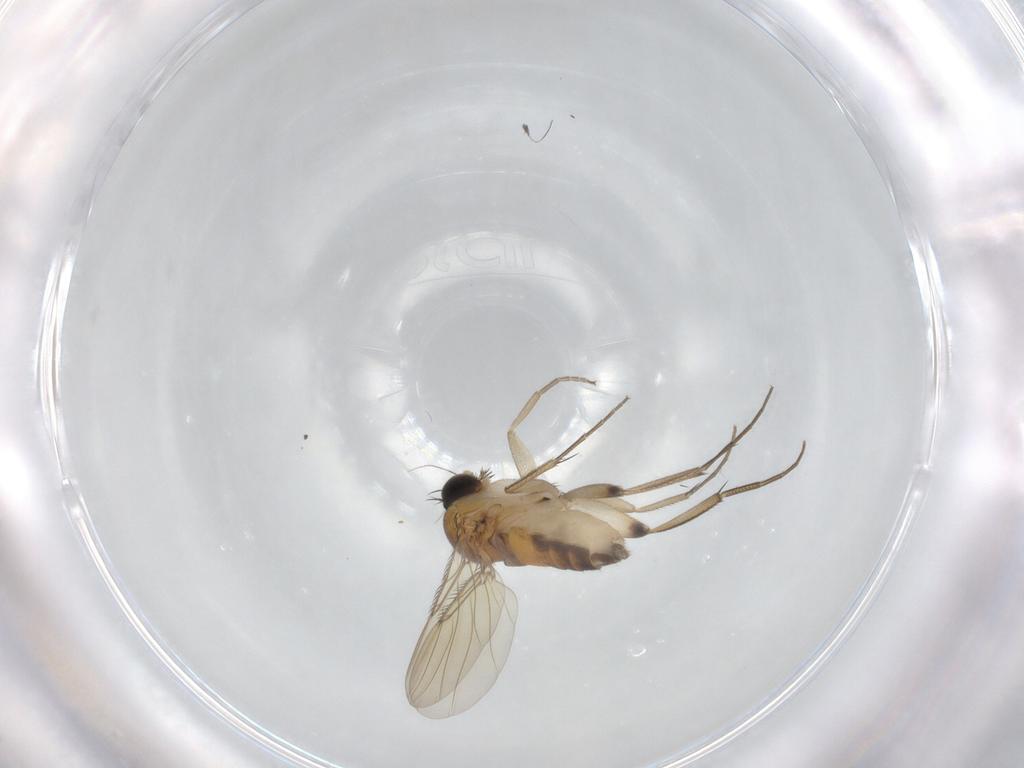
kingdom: Animalia
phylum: Arthropoda
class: Insecta
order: Diptera
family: Phoridae
